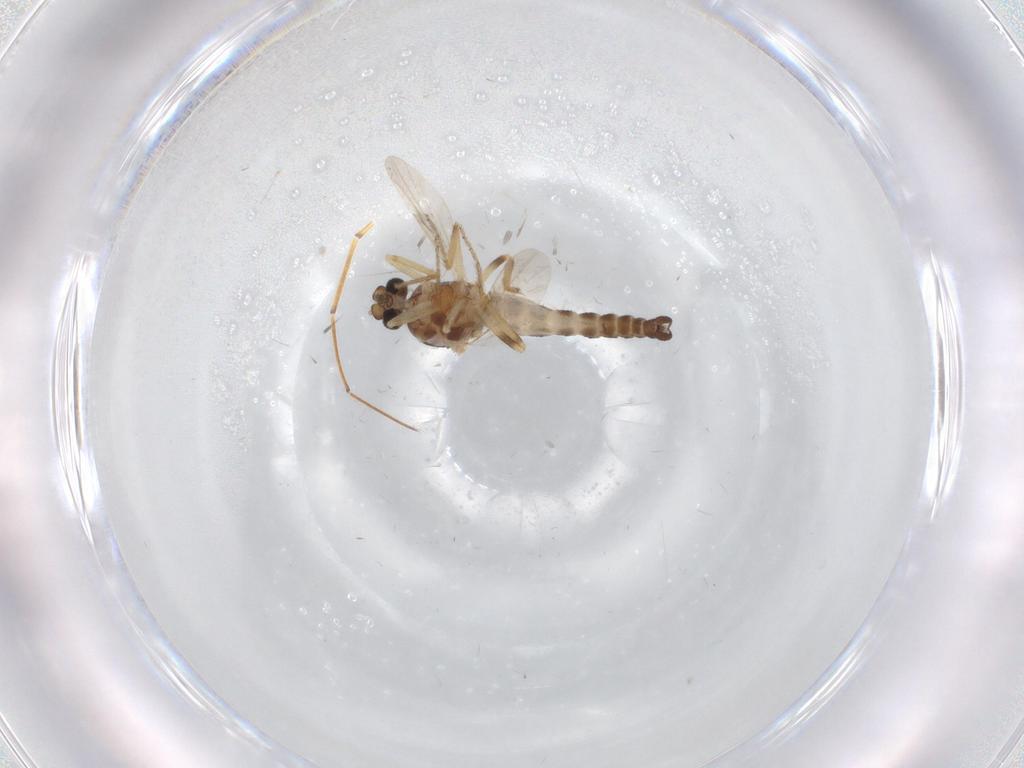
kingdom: Animalia
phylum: Arthropoda
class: Insecta
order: Diptera
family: Ceratopogonidae
